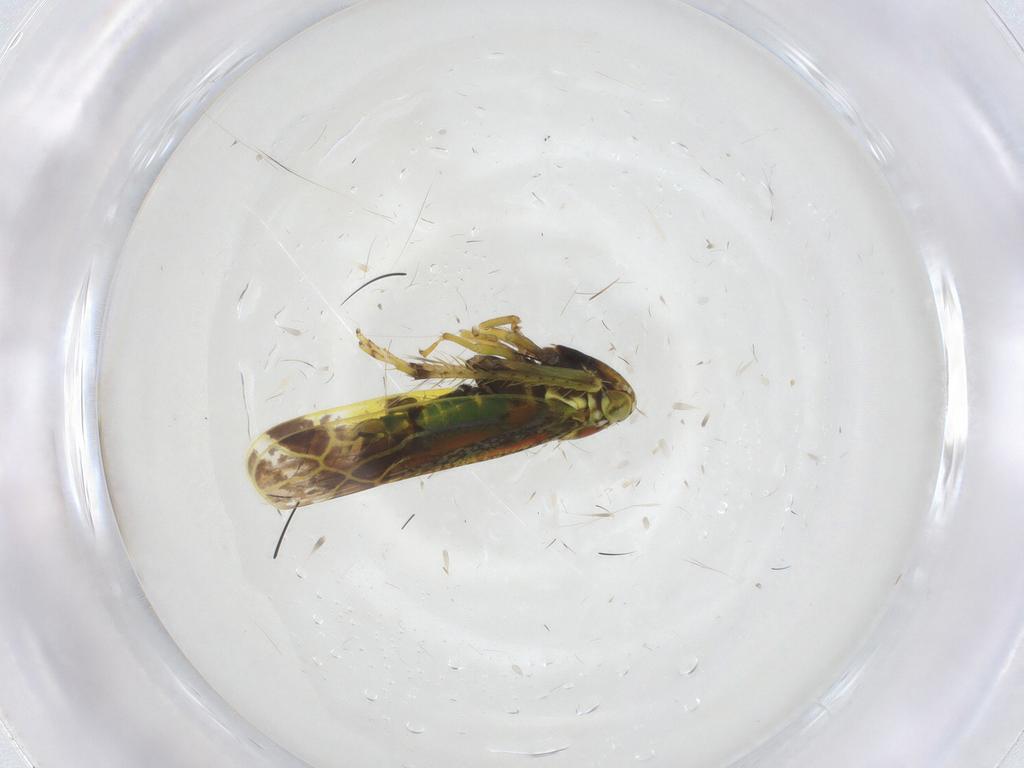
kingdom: Animalia
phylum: Arthropoda
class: Insecta
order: Hemiptera
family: Cicadellidae
